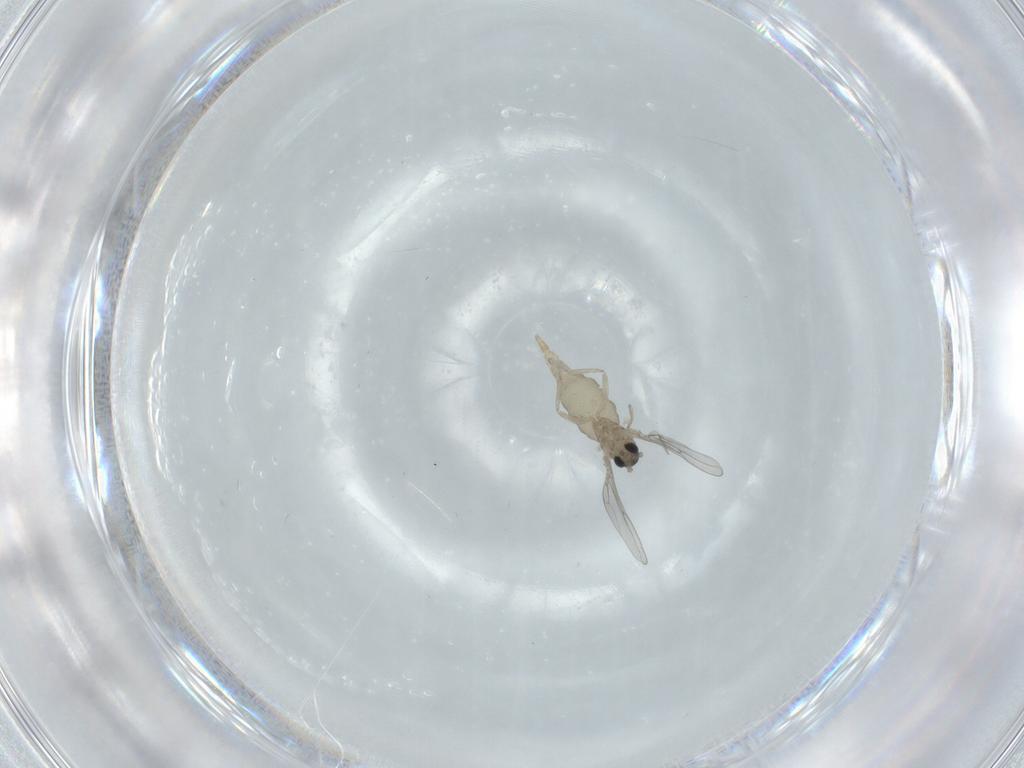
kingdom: Animalia
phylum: Arthropoda
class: Insecta
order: Diptera
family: Cecidomyiidae
